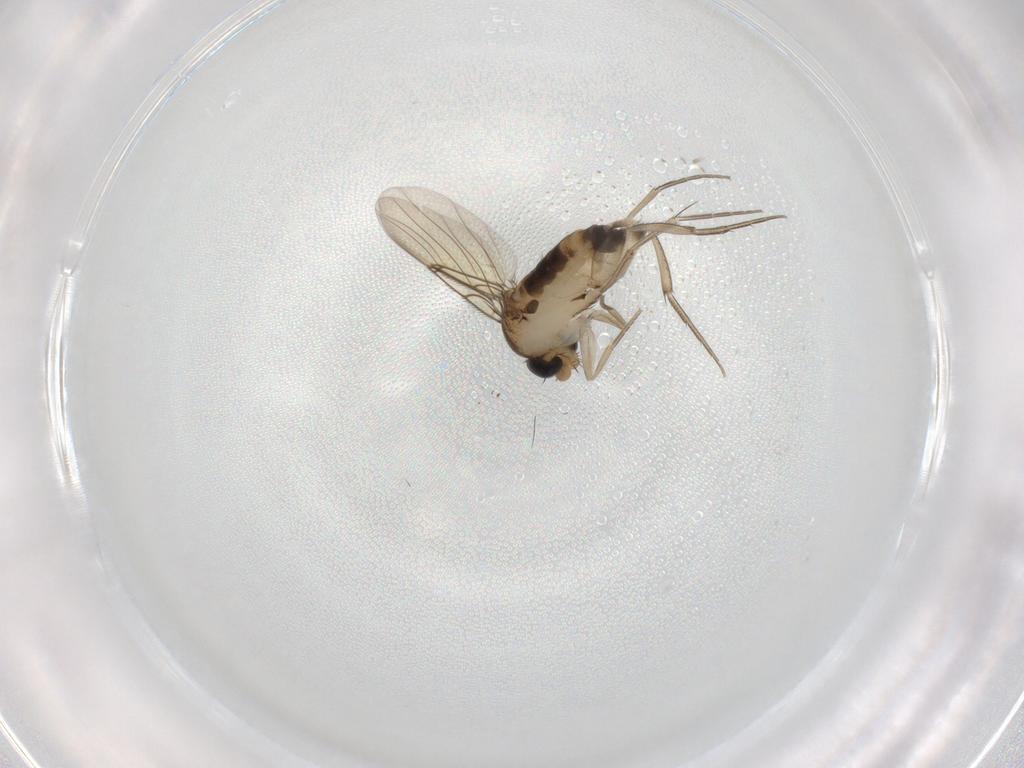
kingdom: Animalia
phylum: Arthropoda
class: Insecta
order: Diptera
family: Phoridae
